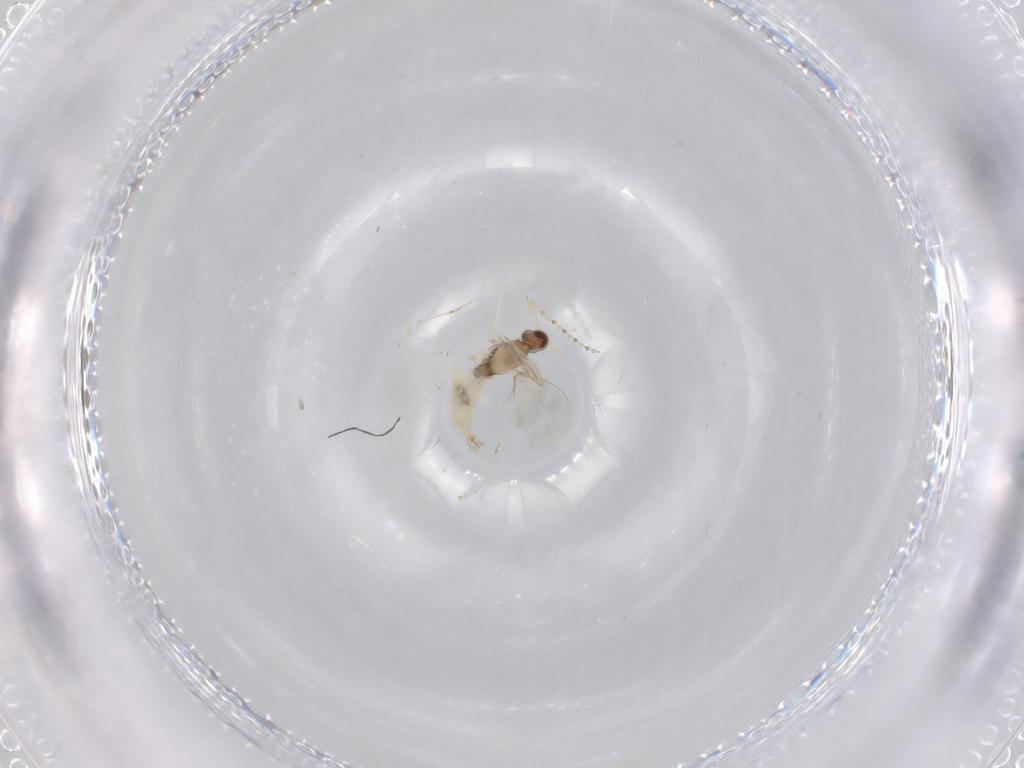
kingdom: Animalia
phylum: Arthropoda
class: Insecta
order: Diptera
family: Cecidomyiidae
